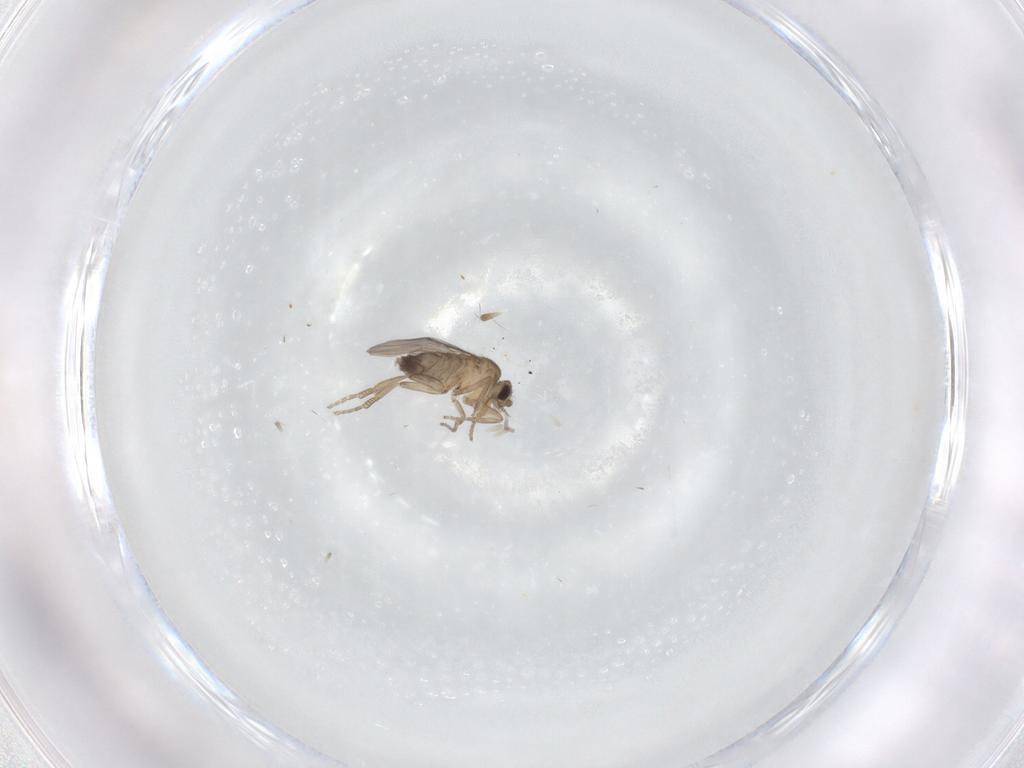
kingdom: Animalia
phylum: Arthropoda
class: Insecta
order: Diptera
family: Phoridae
